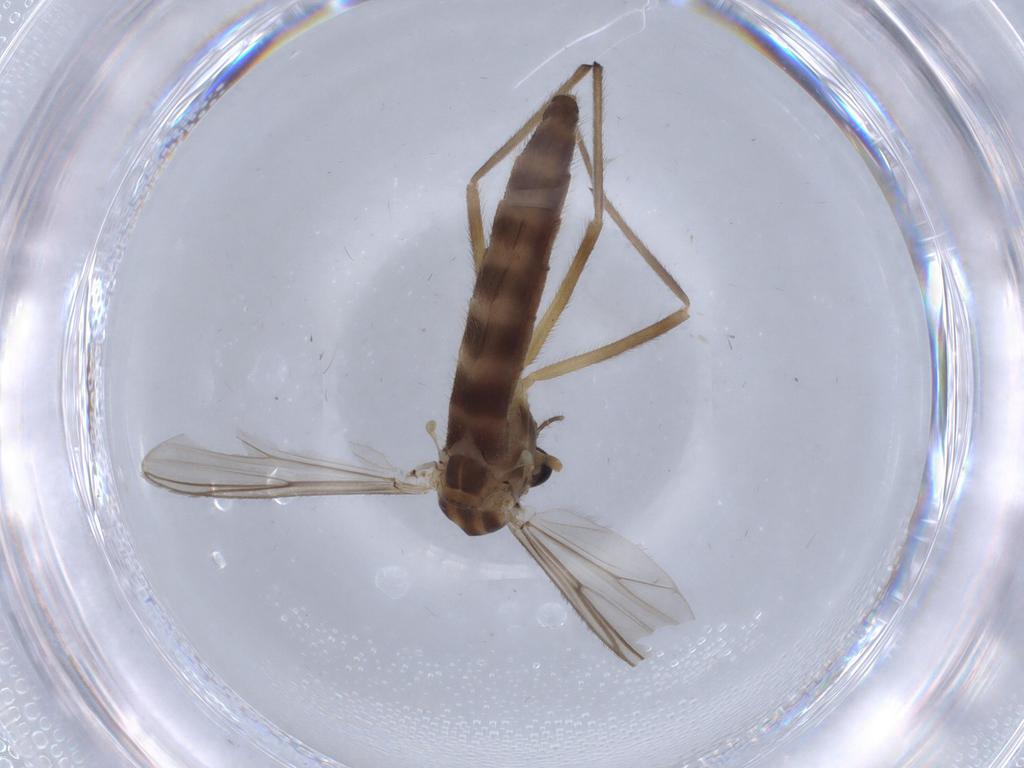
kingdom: Animalia
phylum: Arthropoda
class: Insecta
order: Diptera
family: Chironomidae
